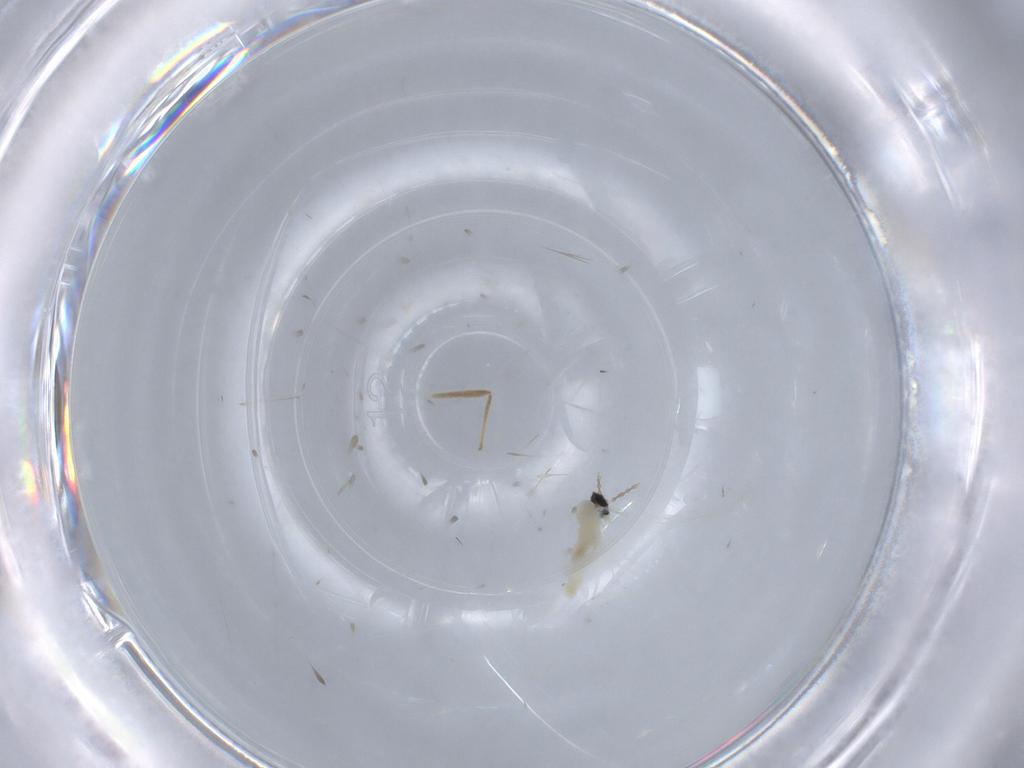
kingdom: Animalia
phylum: Arthropoda
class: Insecta
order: Diptera
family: Cecidomyiidae
